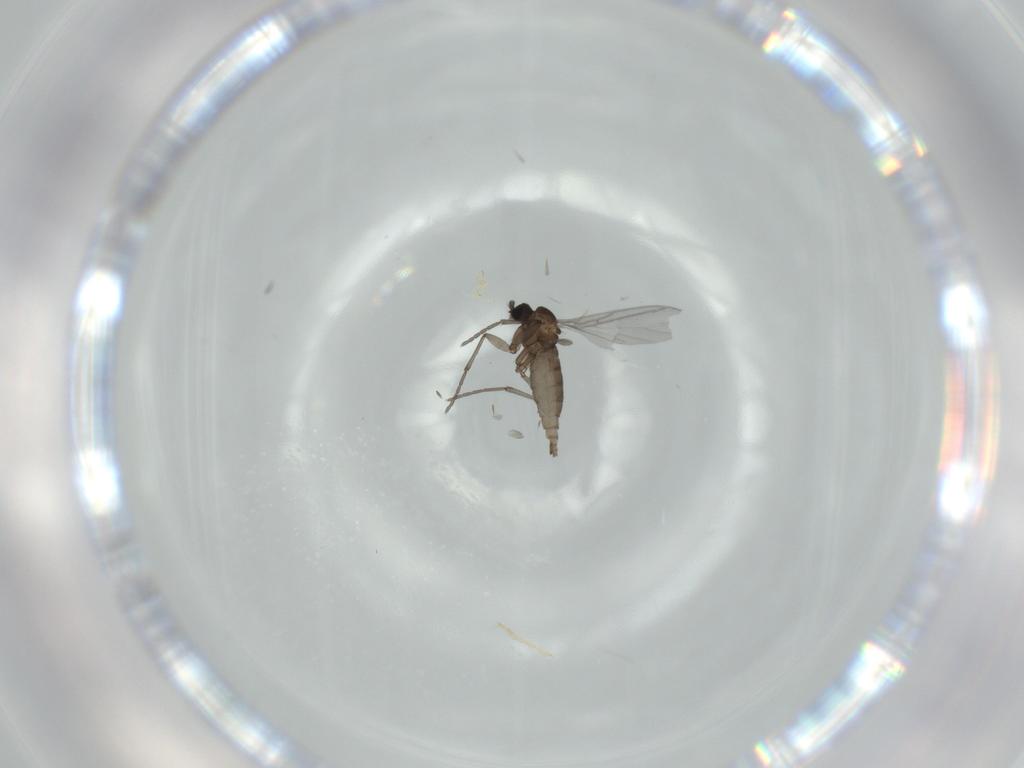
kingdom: Animalia
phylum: Arthropoda
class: Insecta
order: Diptera
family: Sciaridae
